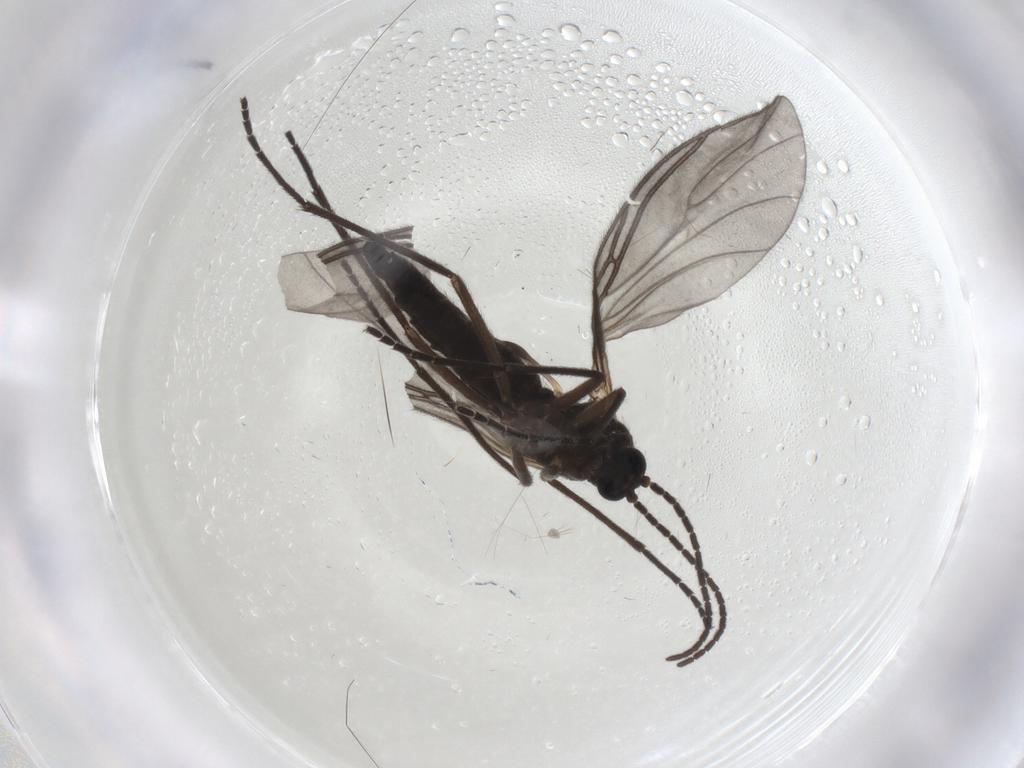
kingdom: Animalia
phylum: Arthropoda
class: Insecta
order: Diptera
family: Sciaridae
